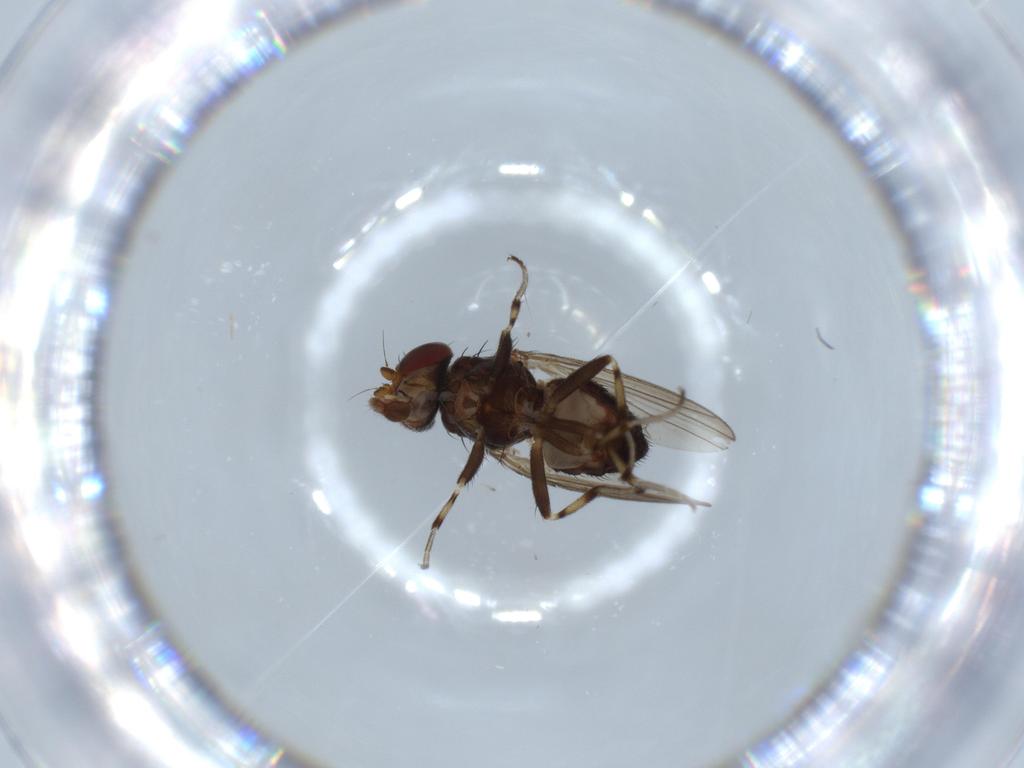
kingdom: Animalia
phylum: Arthropoda
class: Insecta
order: Diptera
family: Heleomyzidae
